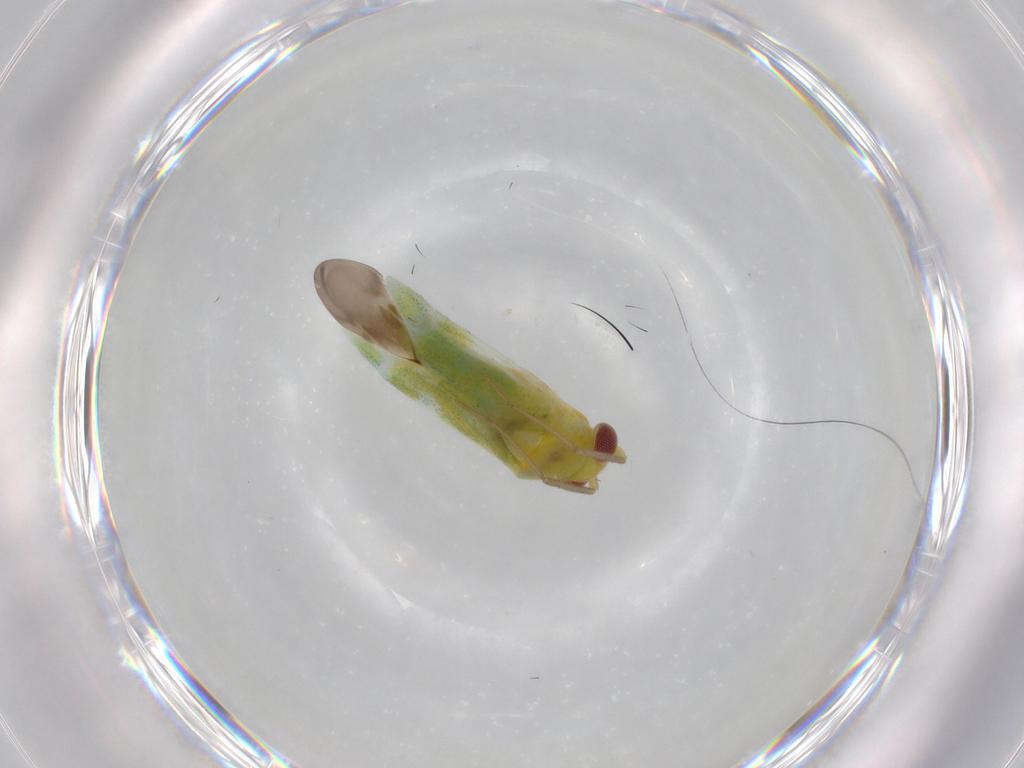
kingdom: Animalia
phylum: Arthropoda
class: Insecta
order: Hemiptera
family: Miridae
